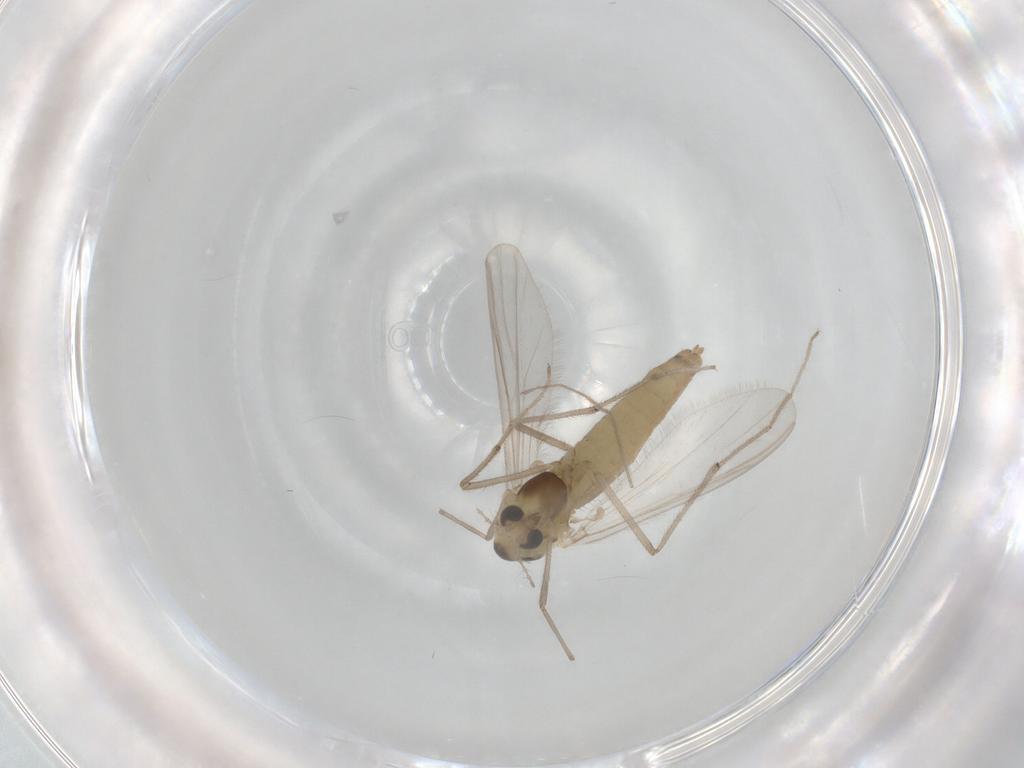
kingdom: Animalia
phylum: Arthropoda
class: Insecta
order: Diptera
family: Chironomidae
